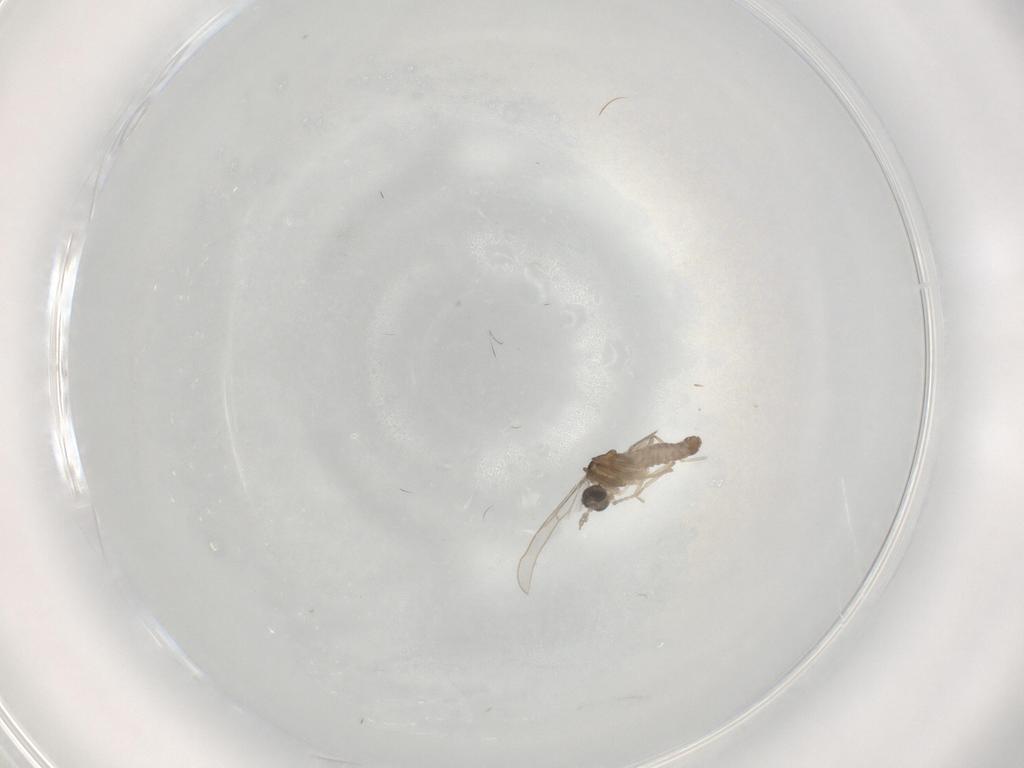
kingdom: Animalia
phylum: Arthropoda
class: Insecta
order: Diptera
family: Cecidomyiidae
